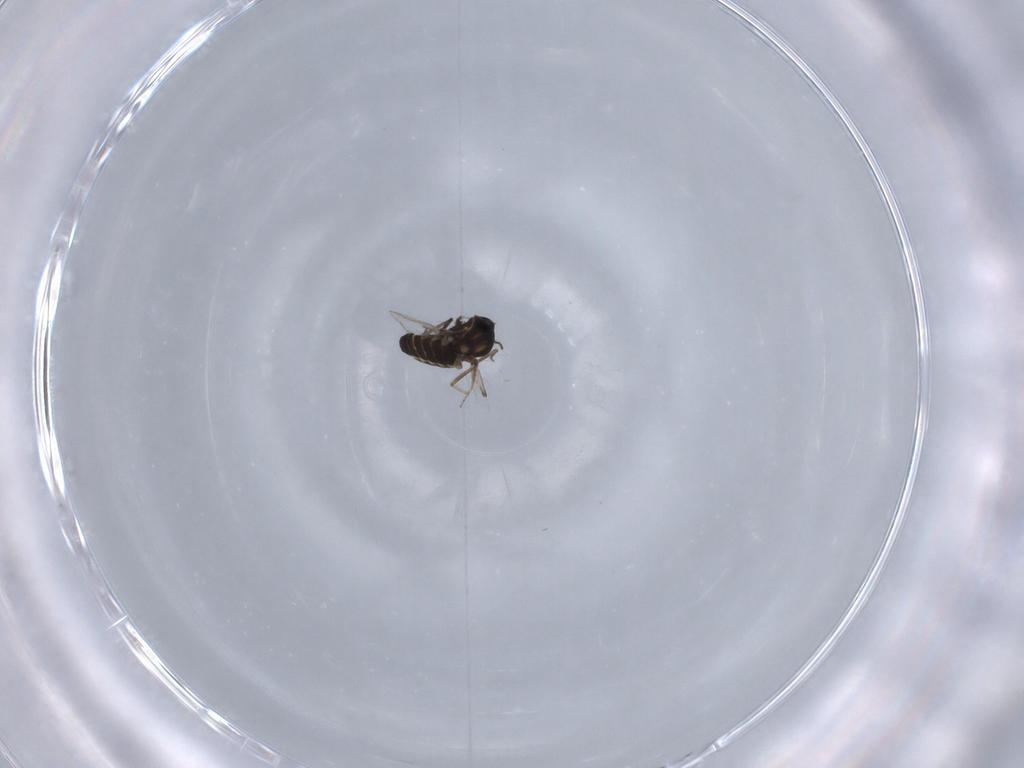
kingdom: Animalia
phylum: Arthropoda
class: Insecta
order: Diptera
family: Ceratopogonidae
